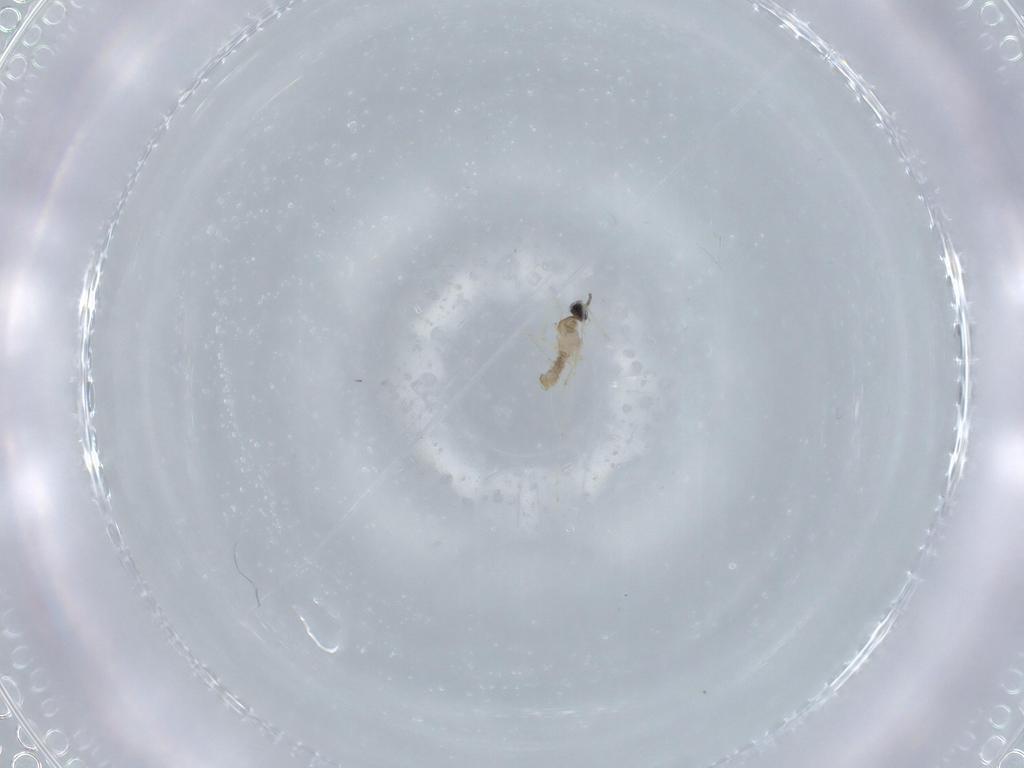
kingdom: Animalia
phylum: Arthropoda
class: Insecta
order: Diptera
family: Cecidomyiidae
